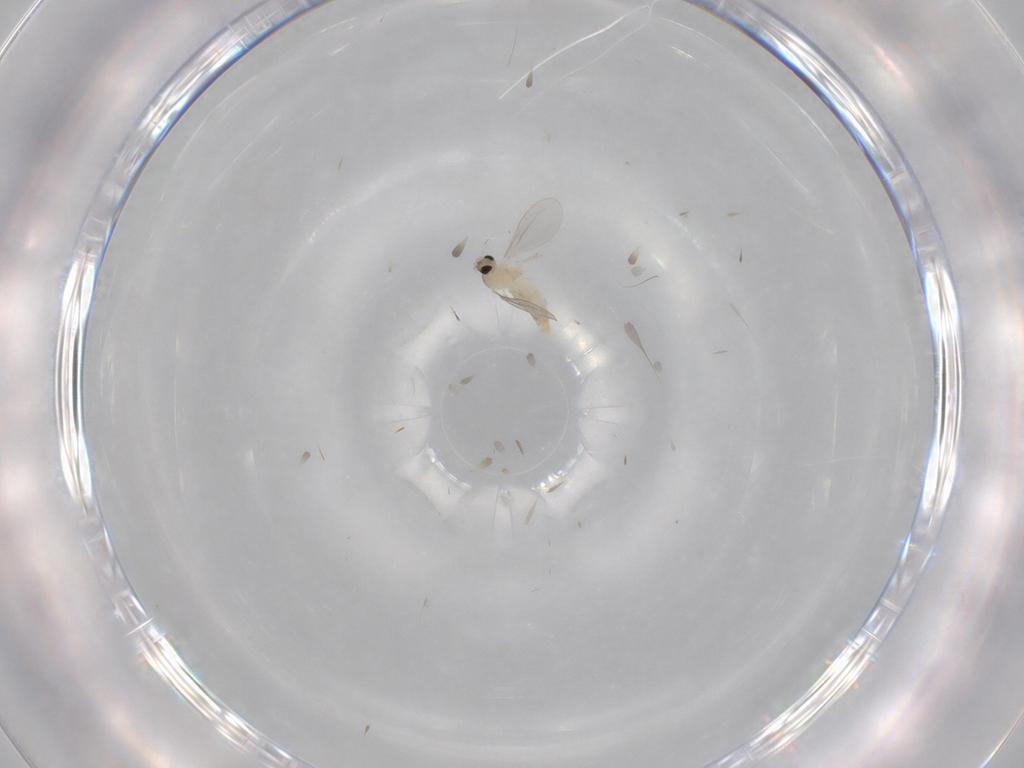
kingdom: Animalia
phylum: Arthropoda
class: Insecta
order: Diptera
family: Cecidomyiidae
